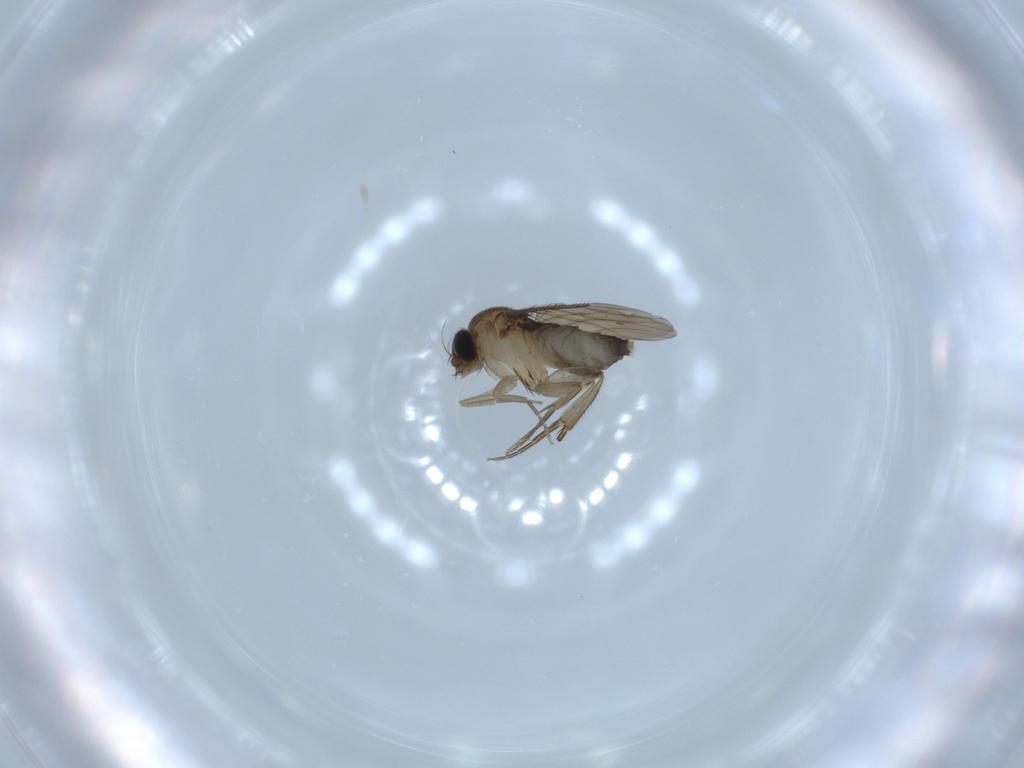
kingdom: Animalia
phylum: Arthropoda
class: Insecta
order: Diptera
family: Phoridae
